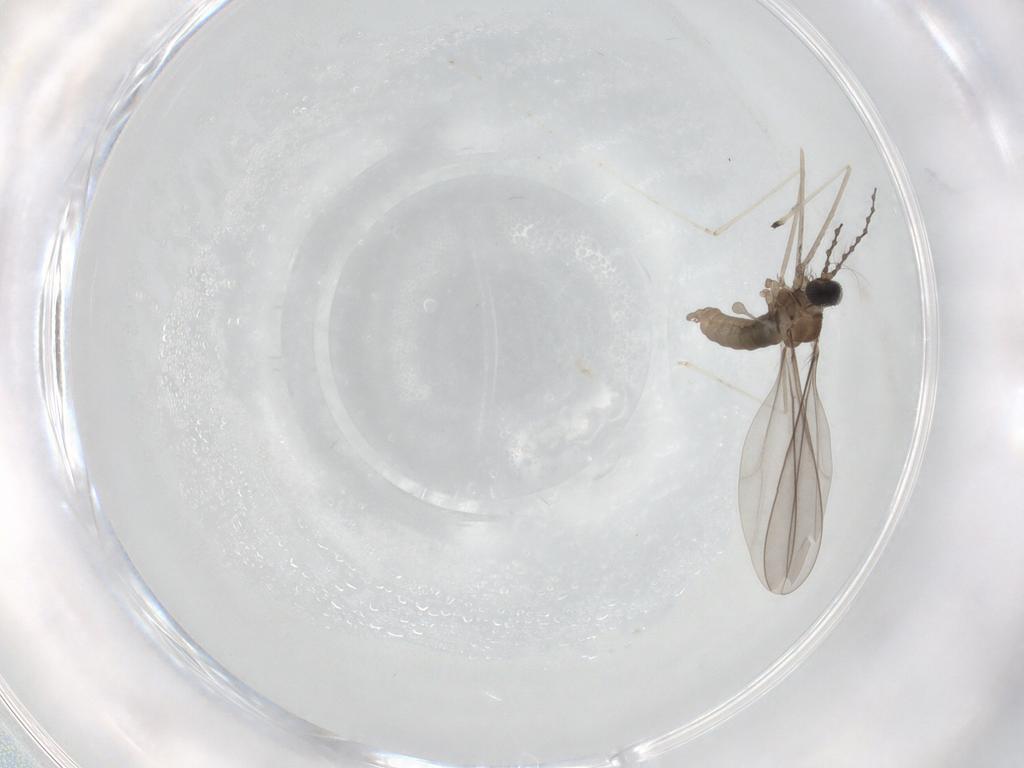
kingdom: Animalia
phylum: Arthropoda
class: Insecta
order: Diptera
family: Cecidomyiidae
